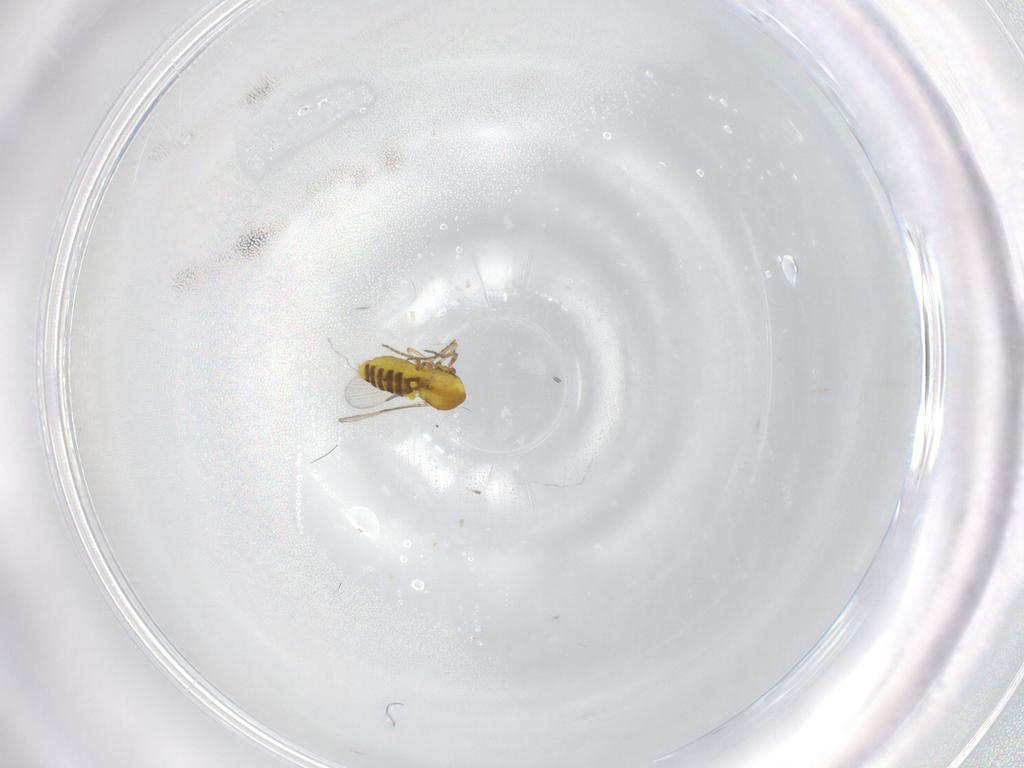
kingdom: Animalia
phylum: Arthropoda
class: Insecta
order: Diptera
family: Ceratopogonidae
